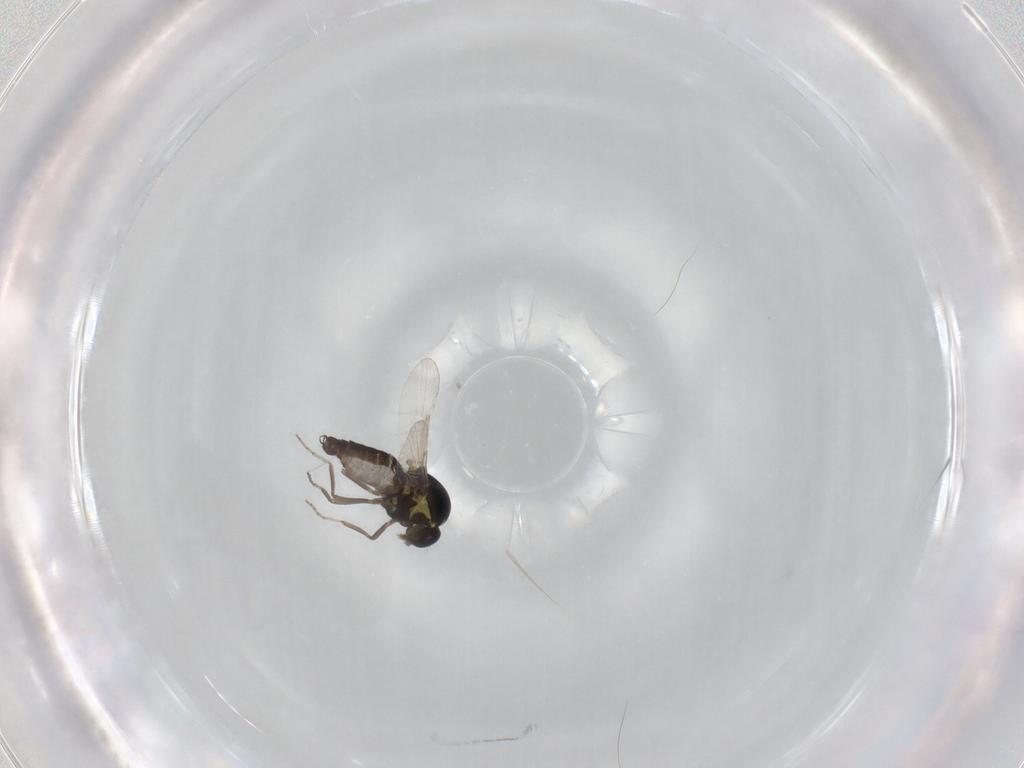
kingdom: Animalia
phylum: Arthropoda
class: Insecta
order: Diptera
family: Ceratopogonidae
